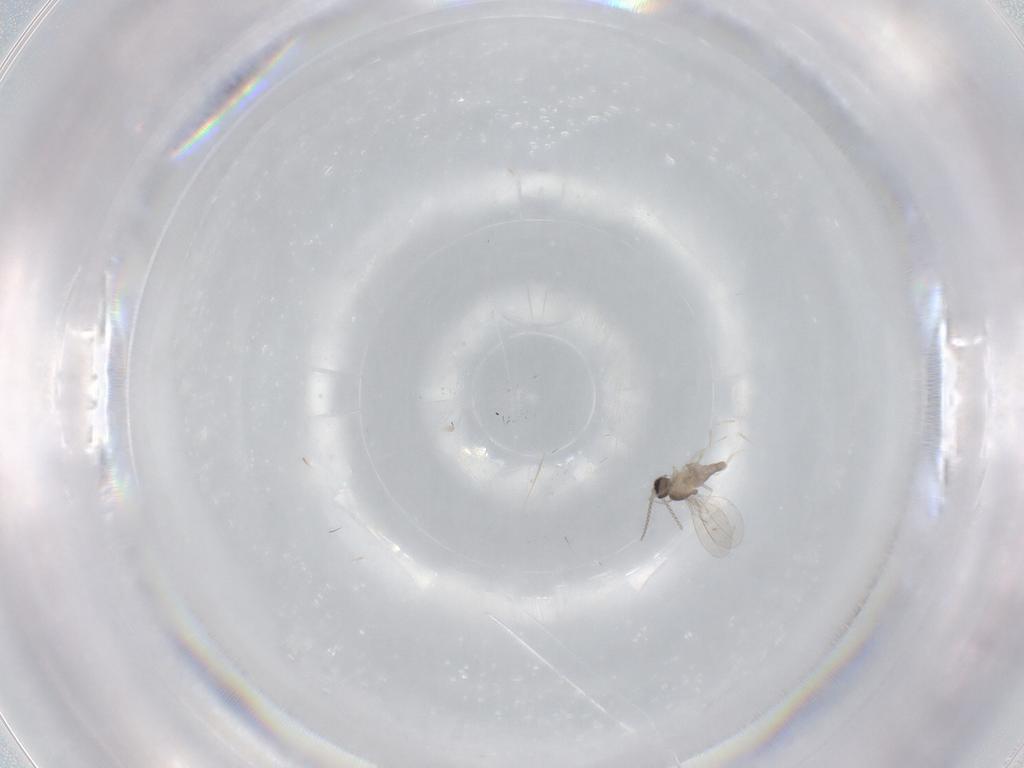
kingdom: Animalia
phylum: Arthropoda
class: Insecta
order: Diptera
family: Cecidomyiidae
